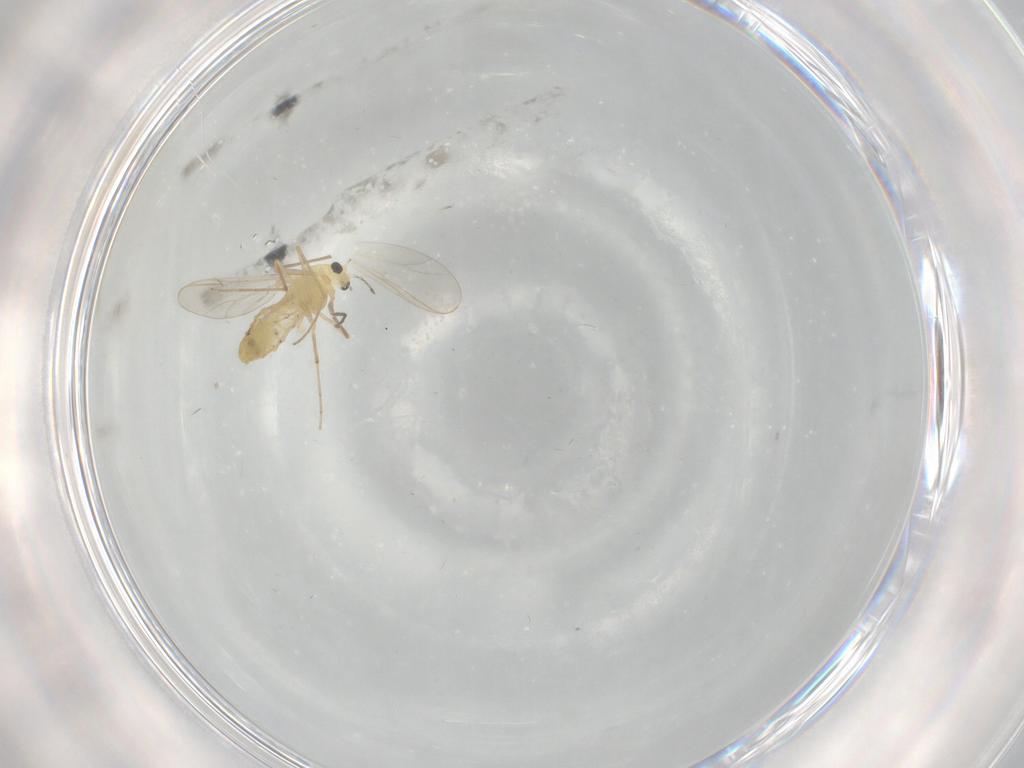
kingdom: Animalia
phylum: Arthropoda
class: Insecta
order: Diptera
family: Chironomidae
